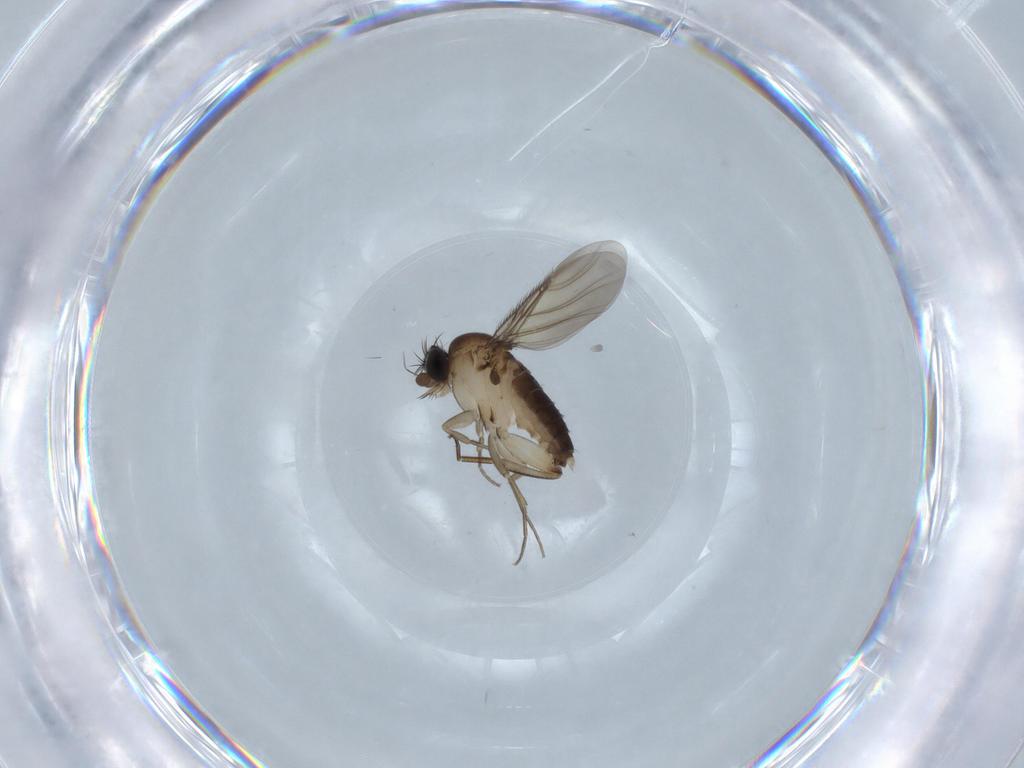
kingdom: Animalia
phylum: Arthropoda
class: Insecta
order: Diptera
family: Phoridae
